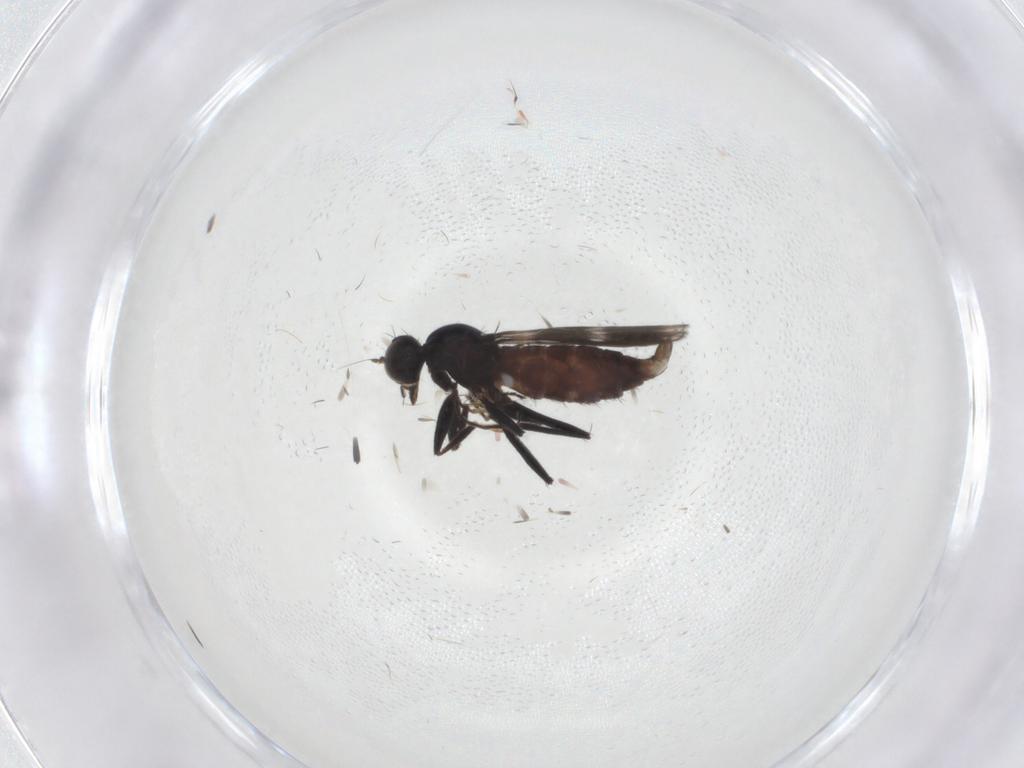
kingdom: Animalia
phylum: Arthropoda
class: Insecta
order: Diptera
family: Hybotidae
